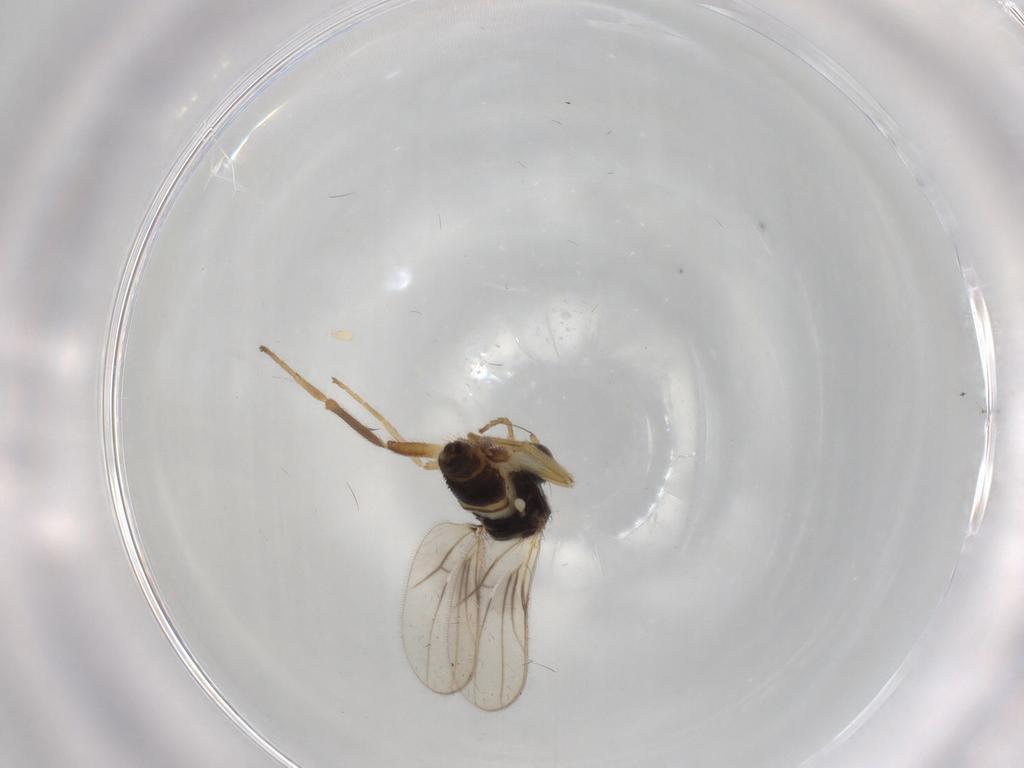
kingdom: Animalia
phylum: Arthropoda
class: Insecta
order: Diptera
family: Hybotidae
